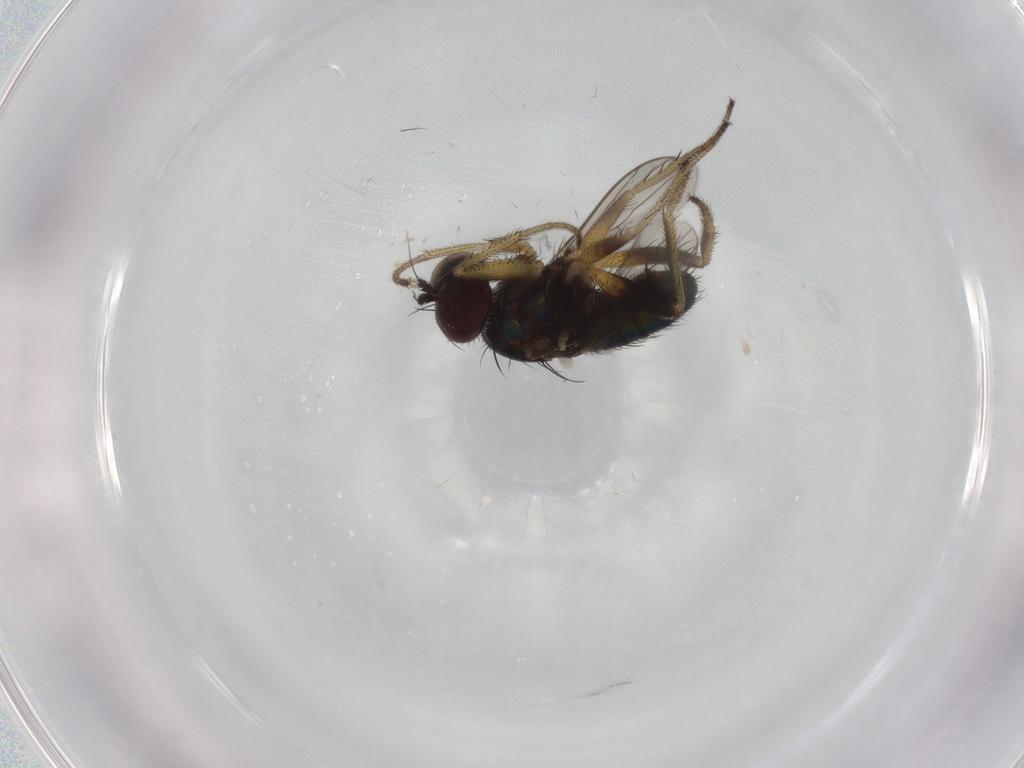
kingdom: Animalia
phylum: Arthropoda
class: Insecta
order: Diptera
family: Dolichopodidae
